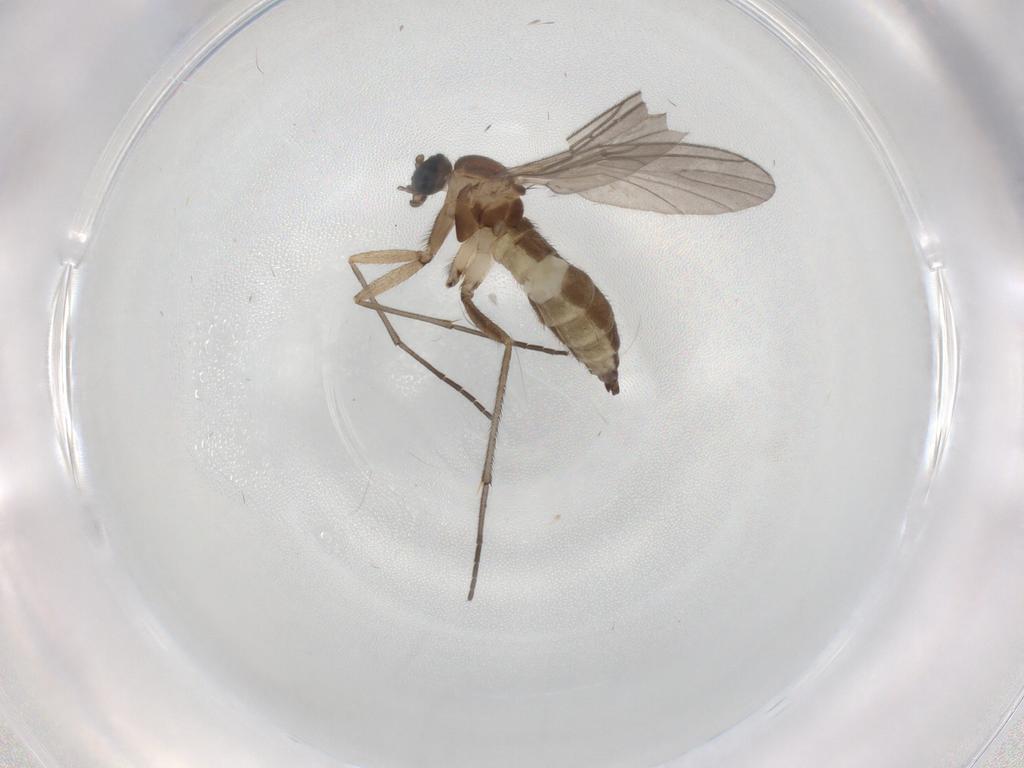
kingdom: Animalia
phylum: Arthropoda
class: Insecta
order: Diptera
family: Sciaridae
